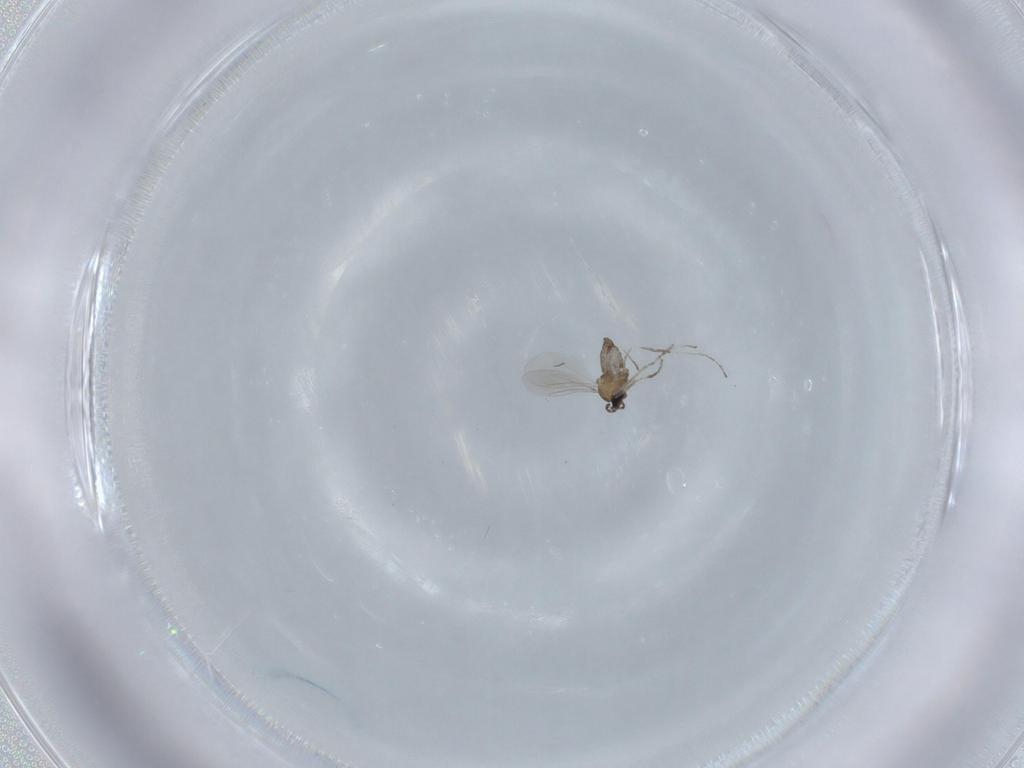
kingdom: Animalia
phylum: Arthropoda
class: Insecta
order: Diptera
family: Cecidomyiidae
